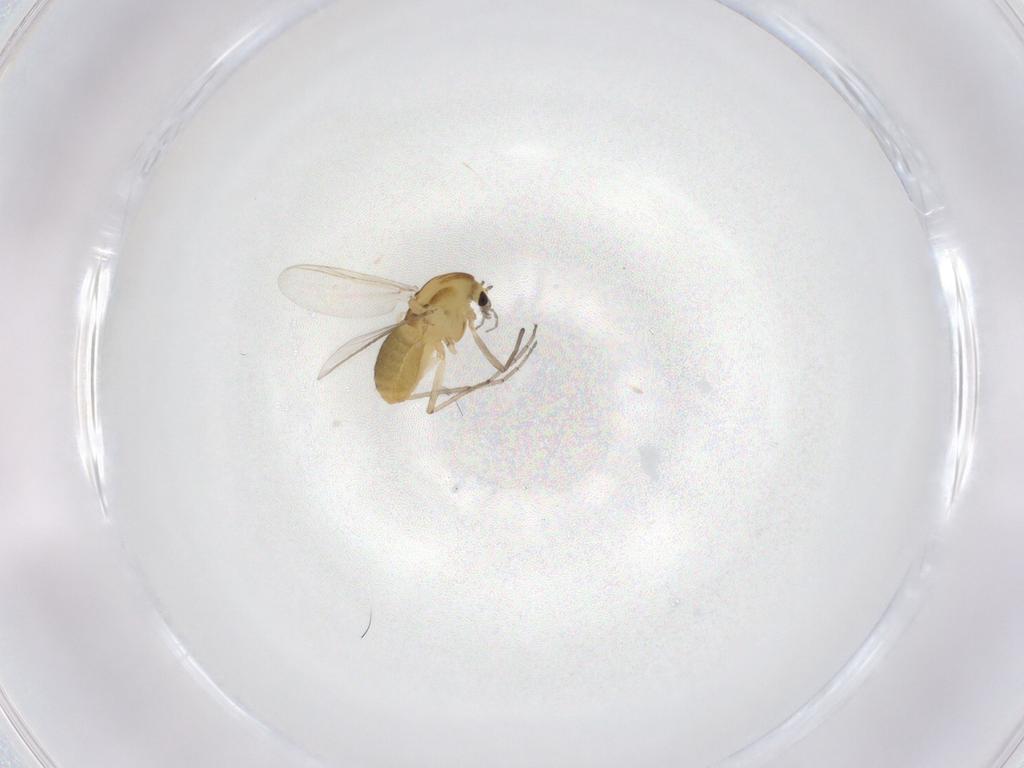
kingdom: Animalia
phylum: Arthropoda
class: Insecta
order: Diptera
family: Chironomidae
